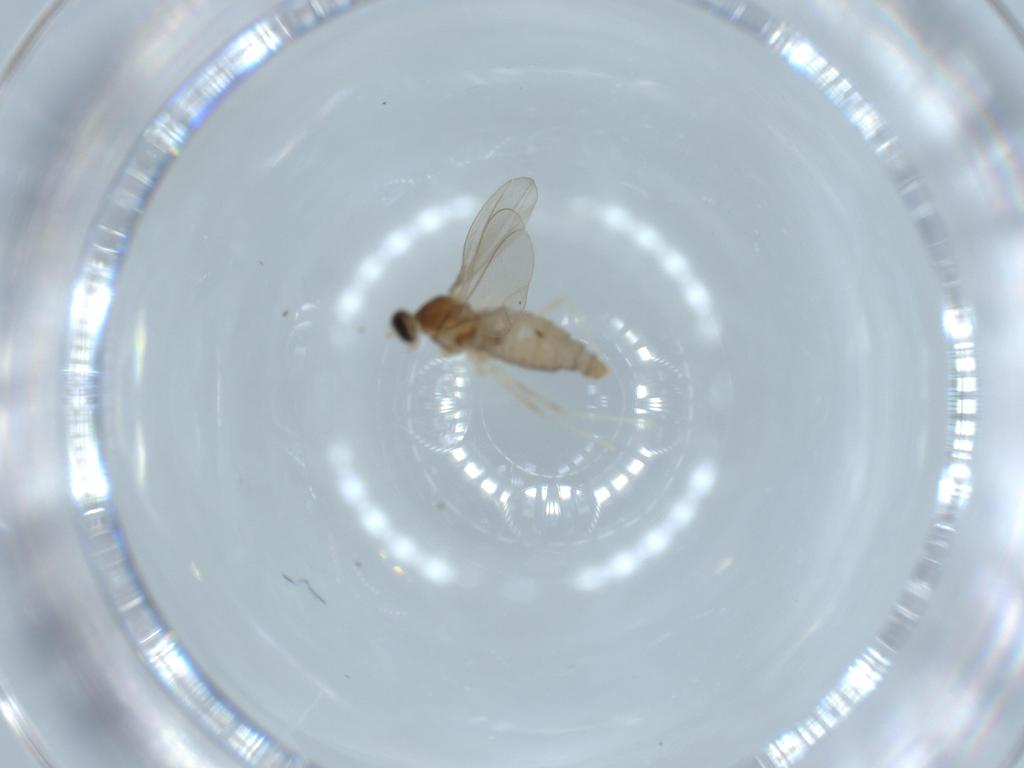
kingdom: Animalia
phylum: Arthropoda
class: Insecta
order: Diptera
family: Cecidomyiidae
